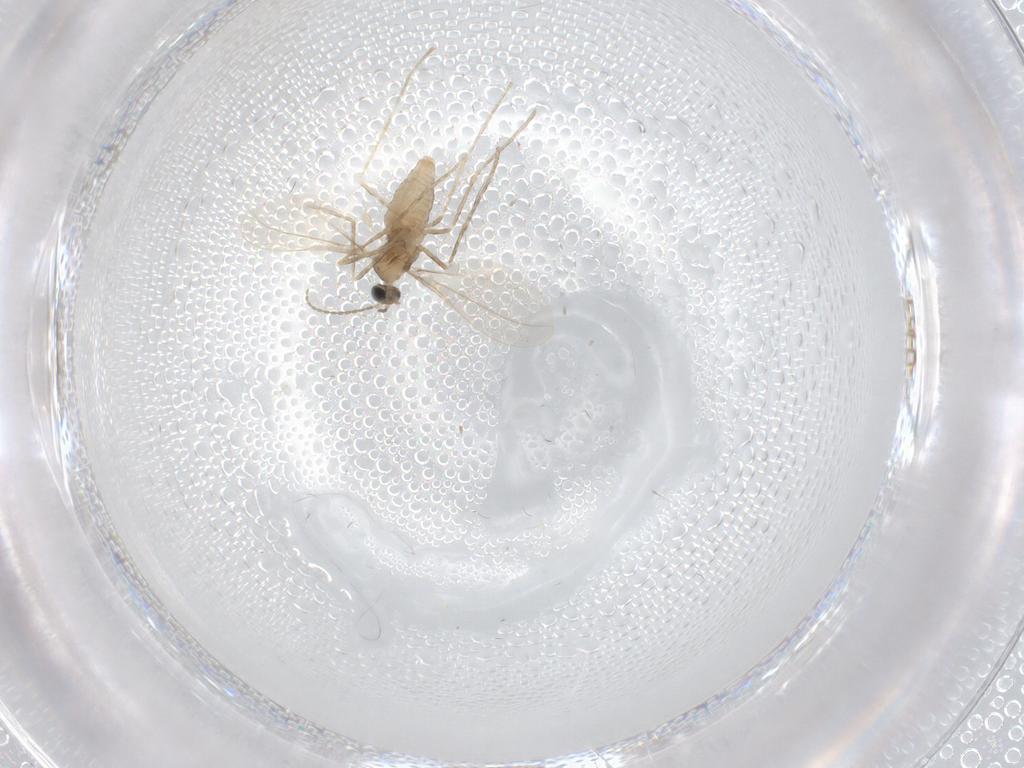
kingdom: Animalia
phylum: Arthropoda
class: Insecta
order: Diptera
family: Cecidomyiidae
